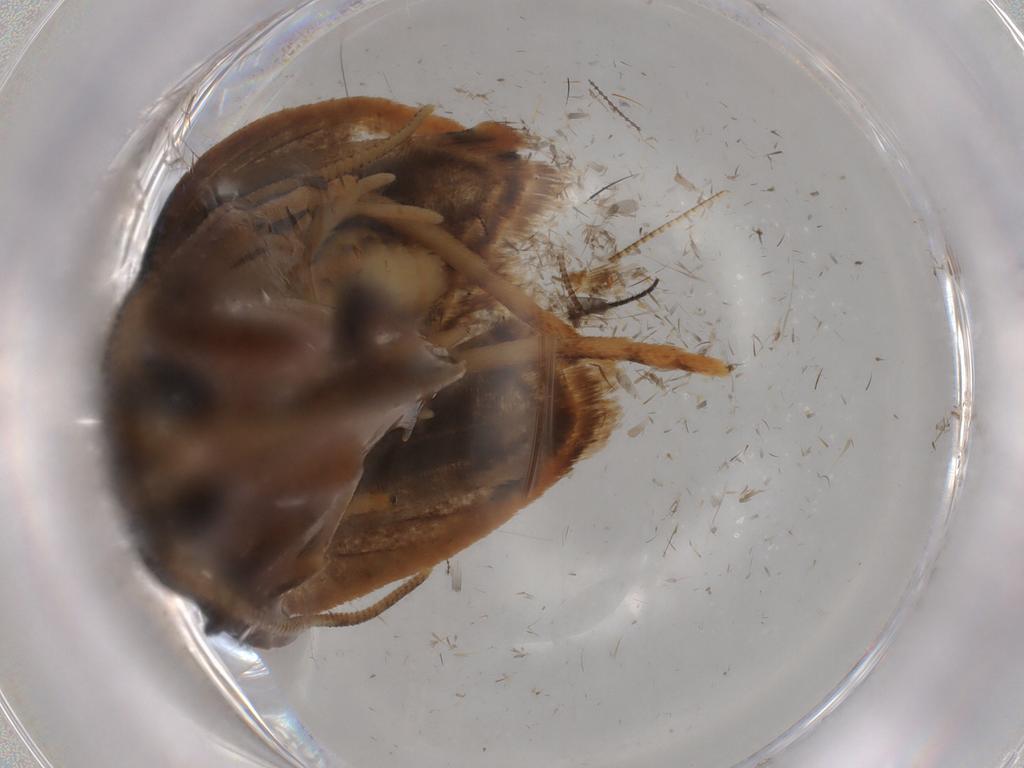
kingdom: Animalia
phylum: Arthropoda
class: Insecta
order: Lepidoptera
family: Gelechiidae
